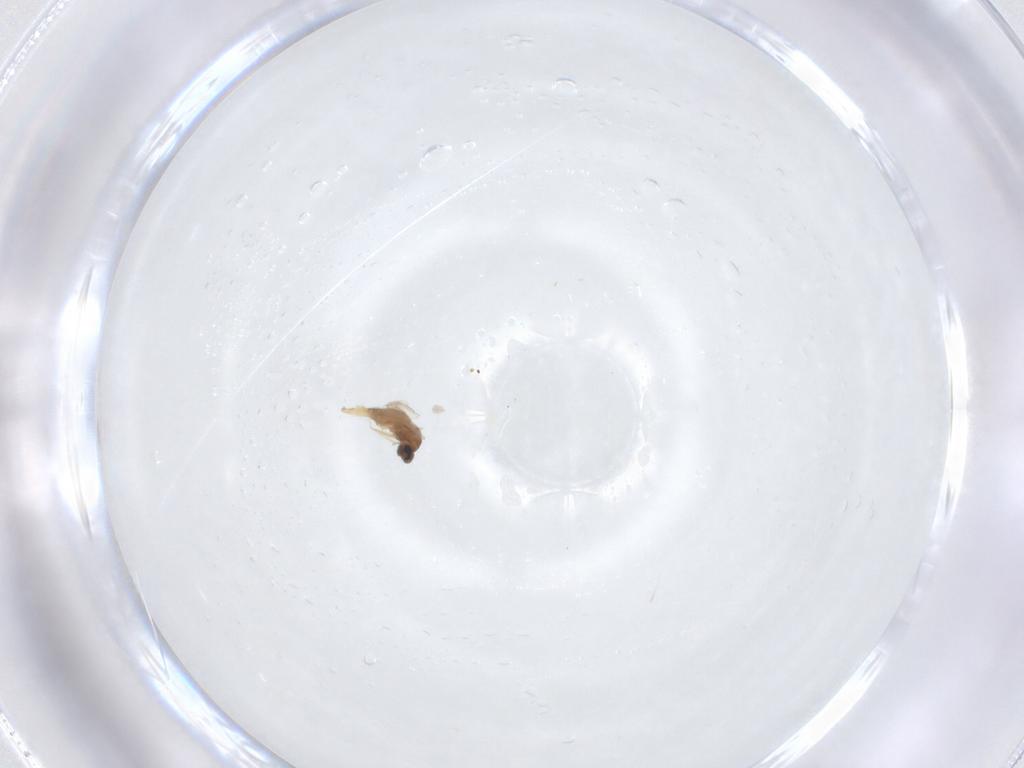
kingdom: Animalia
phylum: Arthropoda
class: Insecta
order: Diptera
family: Cecidomyiidae
